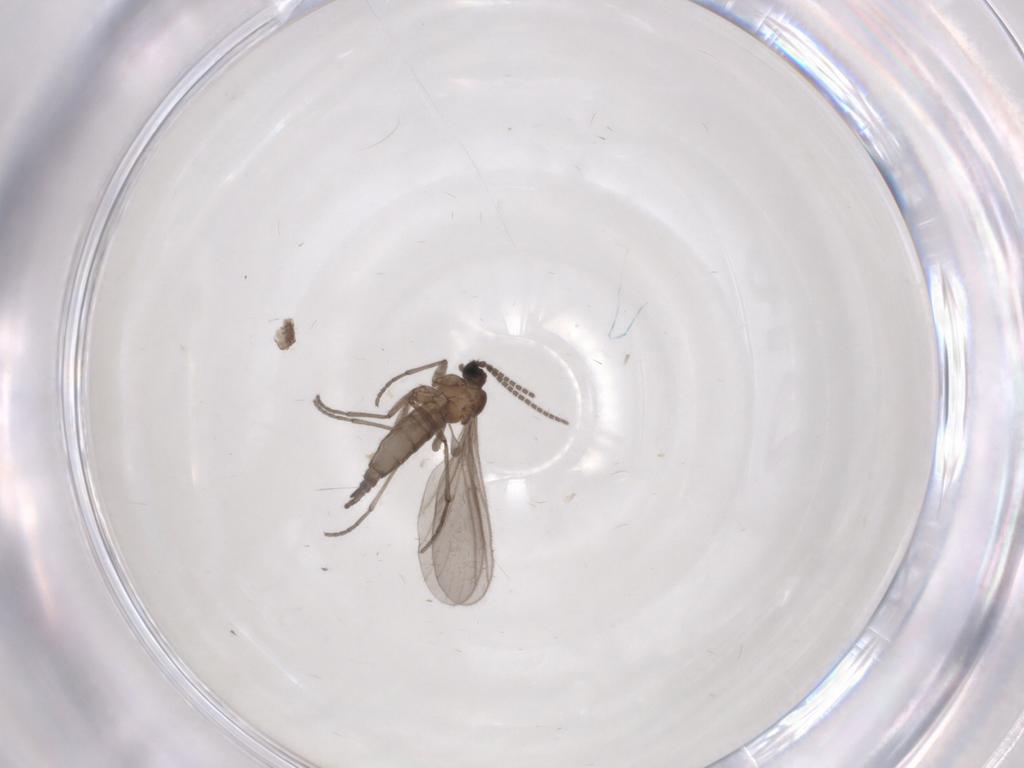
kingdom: Animalia
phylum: Arthropoda
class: Insecta
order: Diptera
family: Sciaridae
